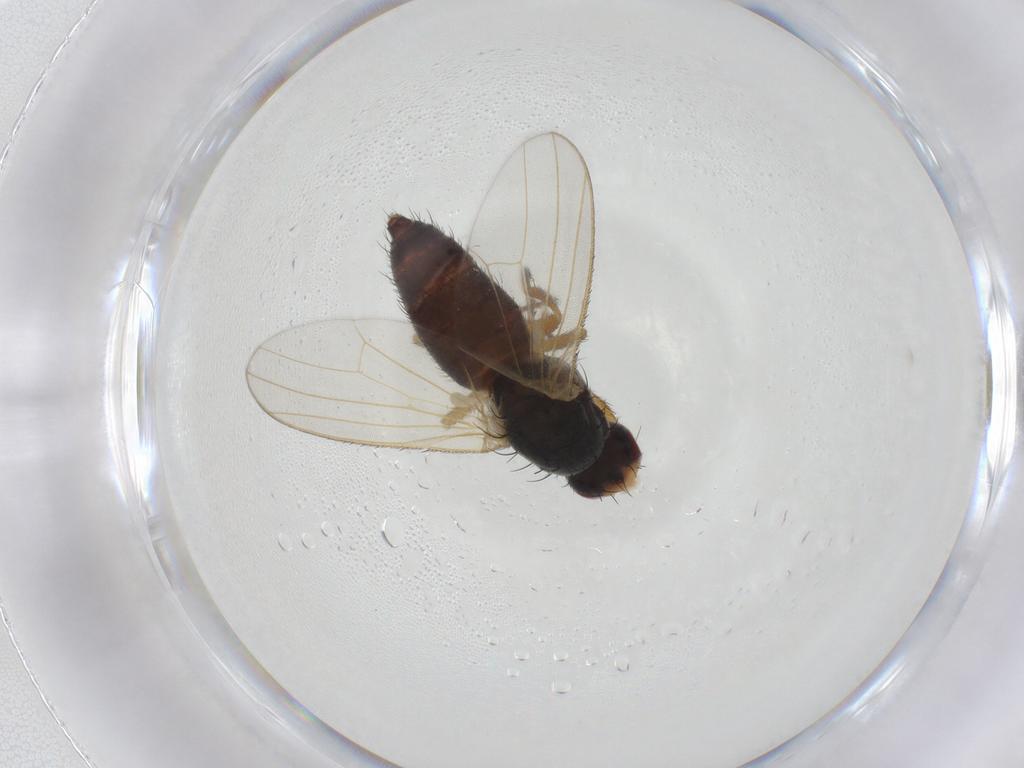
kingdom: Animalia
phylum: Arthropoda
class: Insecta
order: Diptera
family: Heleomyzidae
